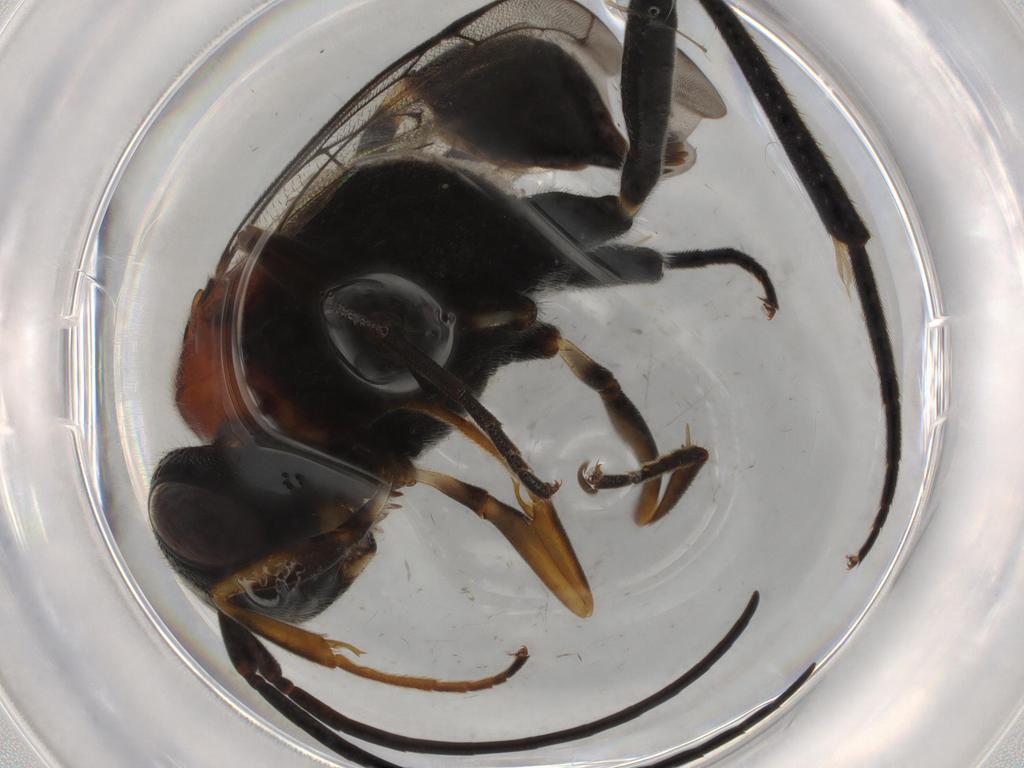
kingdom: Animalia
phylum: Arthropoda
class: Insecta
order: Hymenoptera
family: Formicidae
